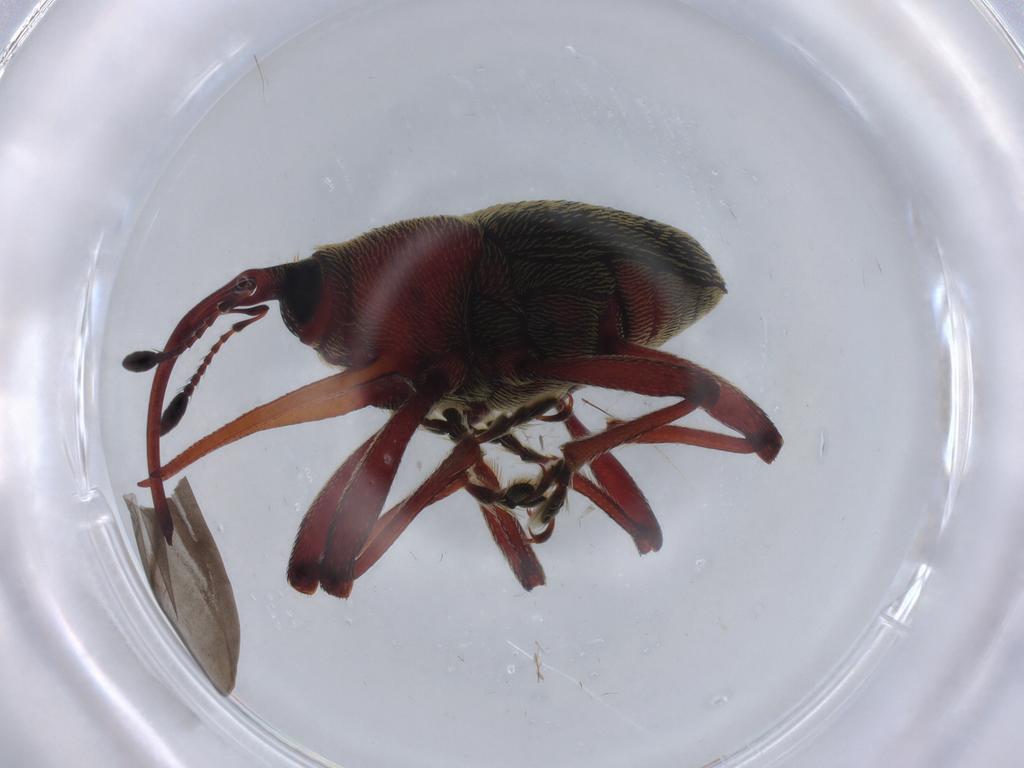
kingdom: Animalia
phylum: Arthropoda
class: Insecta
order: Coleoptera
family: Curculionidae
